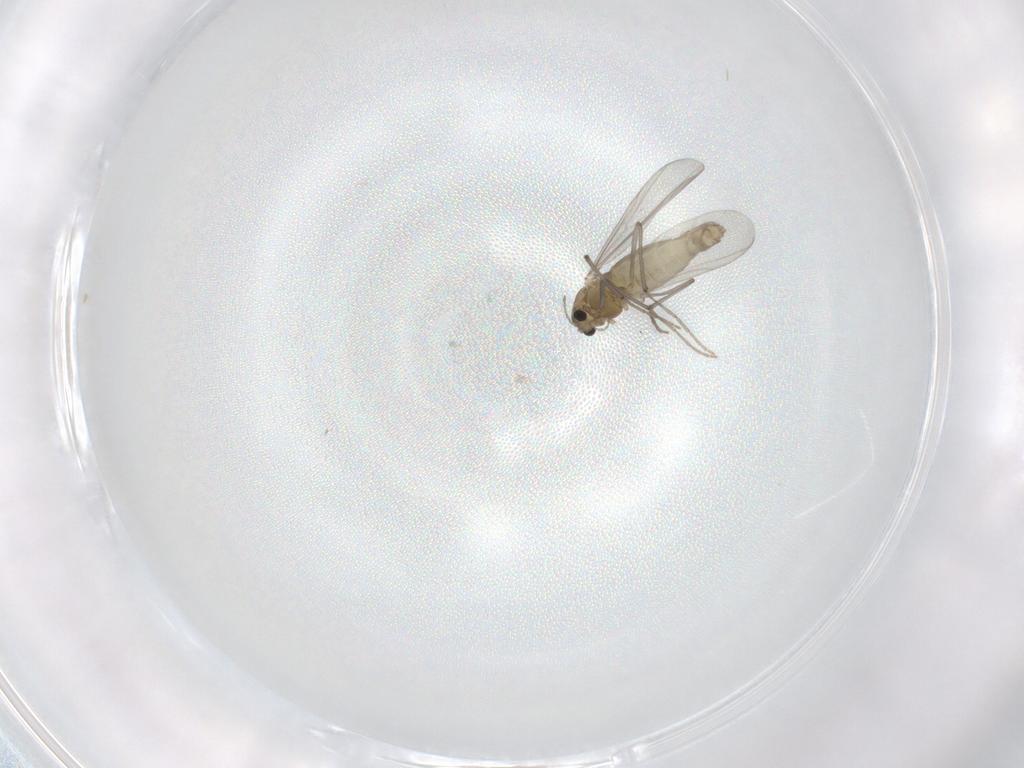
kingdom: Animalia
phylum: Arthropoda
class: Insecta
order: Diptera
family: Chironomidae
